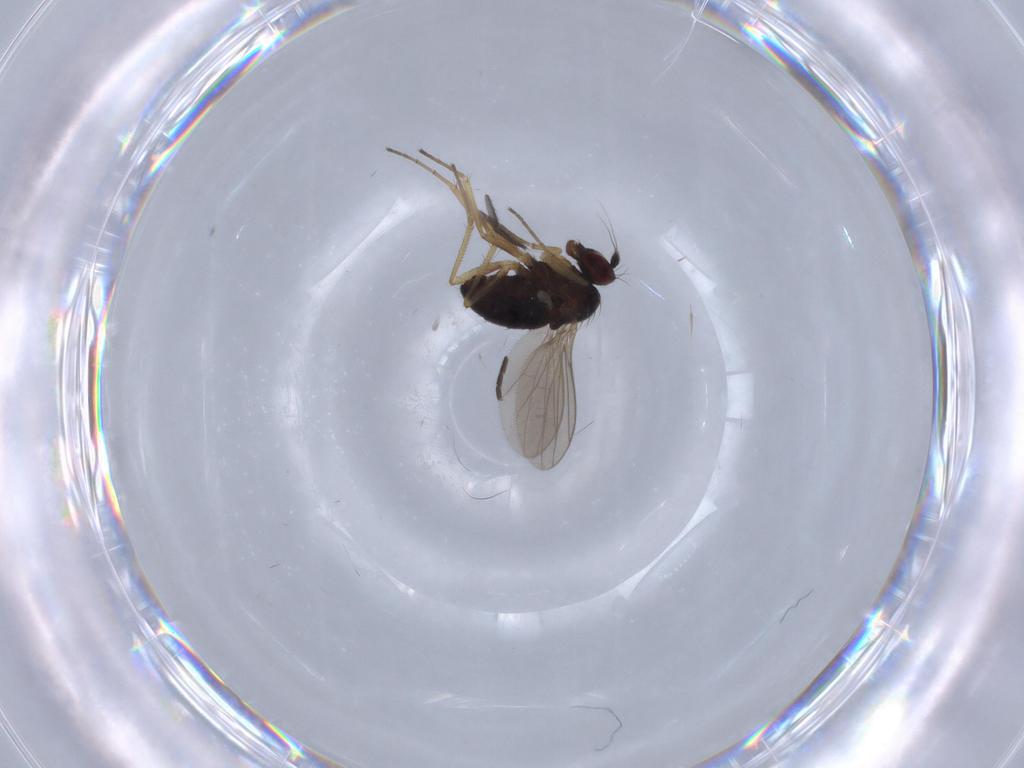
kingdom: Animalia
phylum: Arthropoda
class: Insecta
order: Diptera
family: Dolichopodidae
